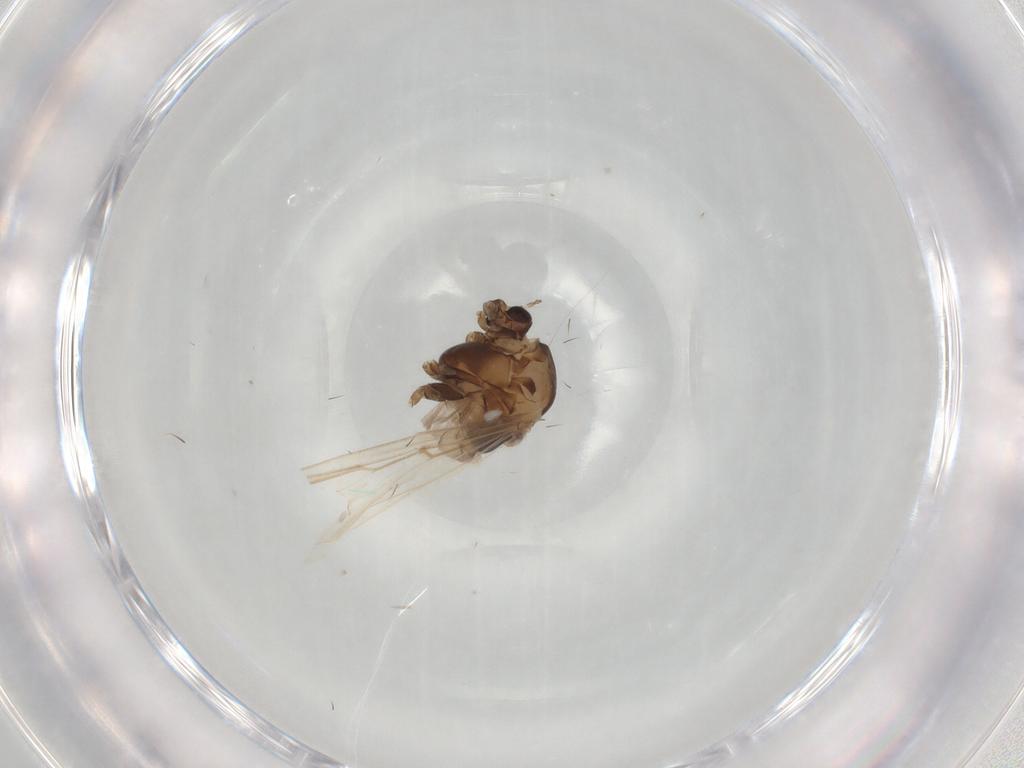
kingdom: Animalia
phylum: Arthropoda
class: Insecta
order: Diptera
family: Chironomidae
